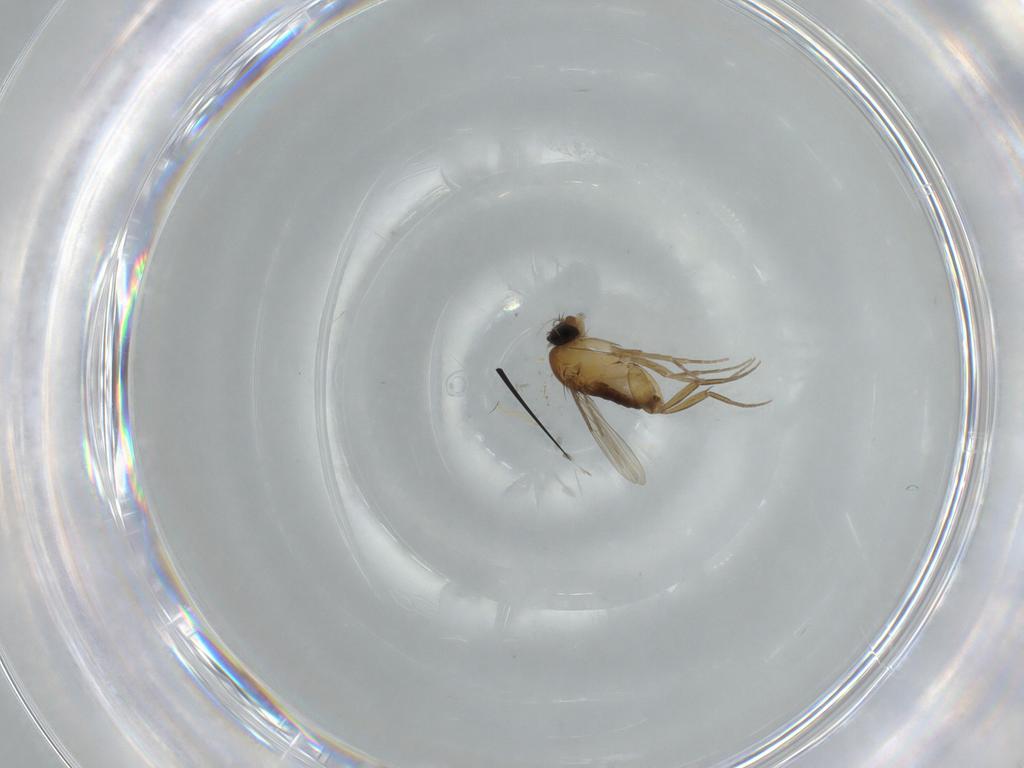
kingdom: Animalia
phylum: Arthropoda
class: Insecta
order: Diptera
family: Phoridae
